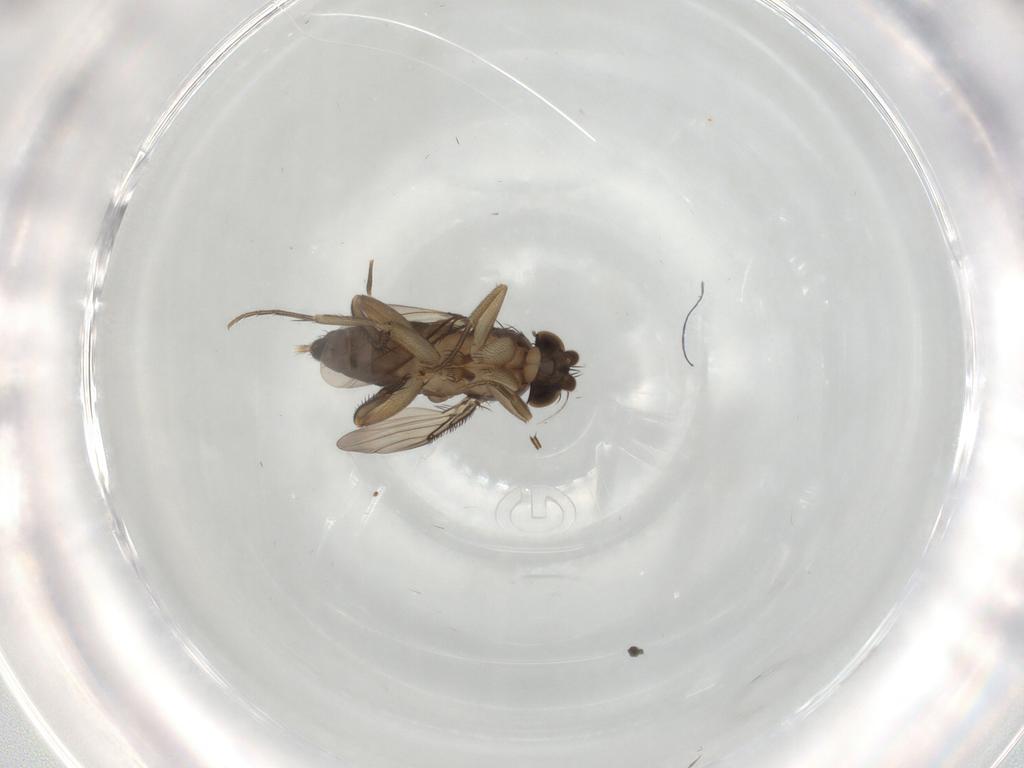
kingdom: Animalia
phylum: Arthropoda
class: Insecta
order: Diptera
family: Phoridae
